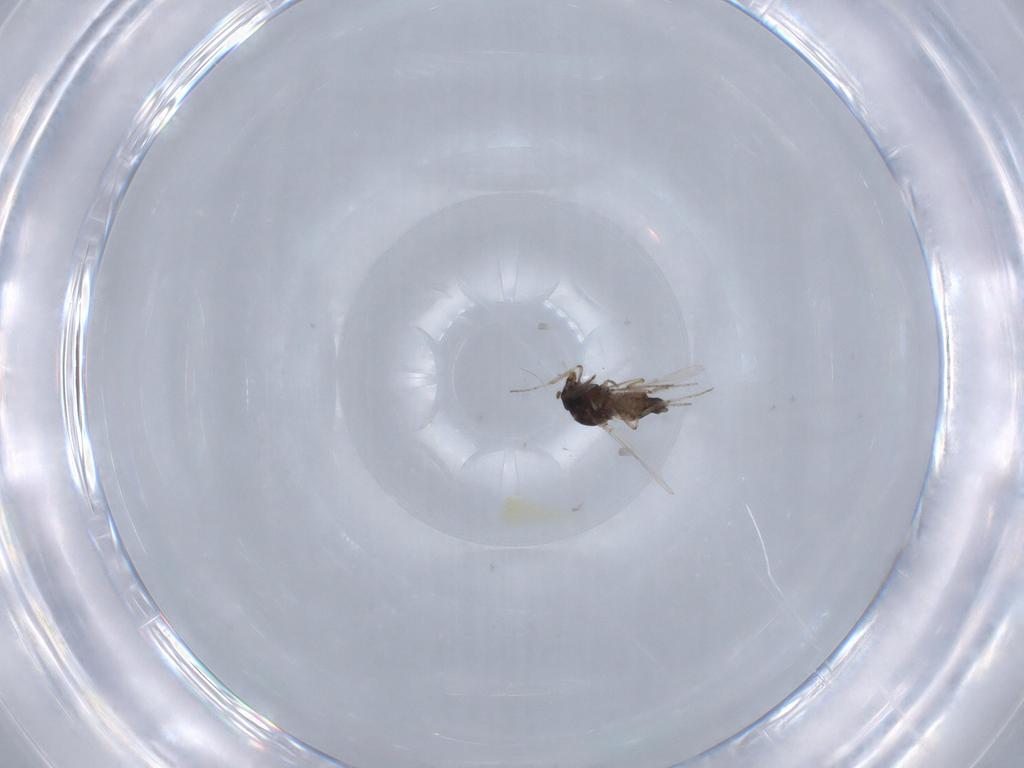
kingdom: Animalia
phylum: Arthropoda
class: Insecta
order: Diptera
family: Ceratopogonidae
